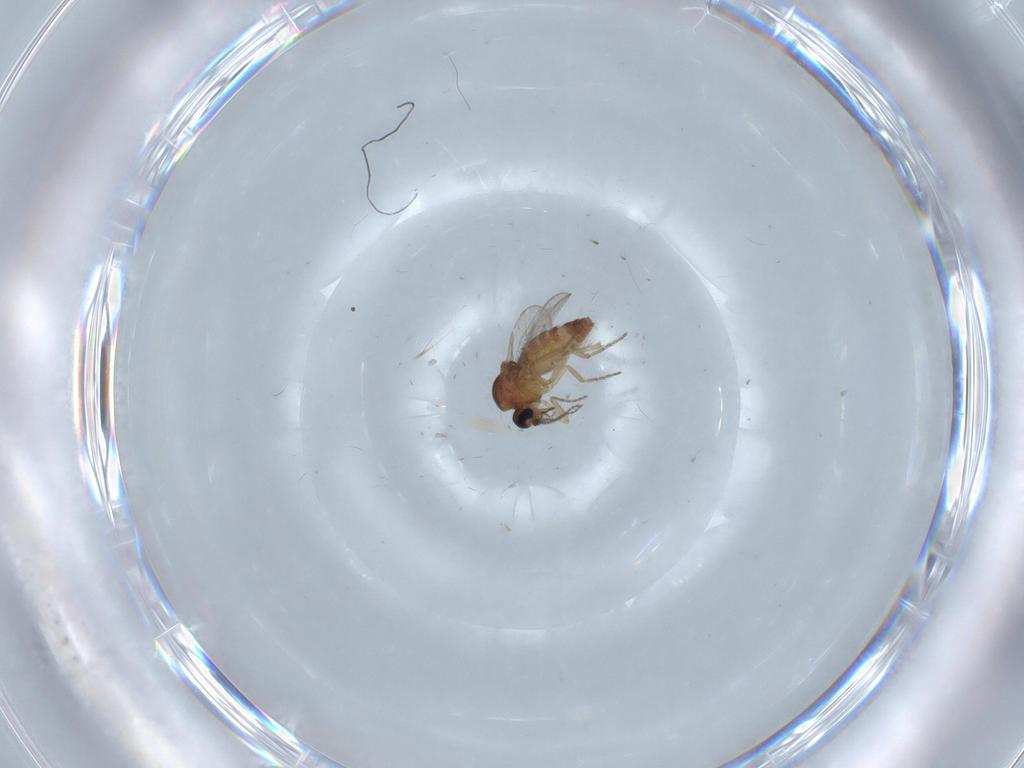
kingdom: Animalia
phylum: Arthropoda
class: Insecta
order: Diptera
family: Ceratopogonidae
